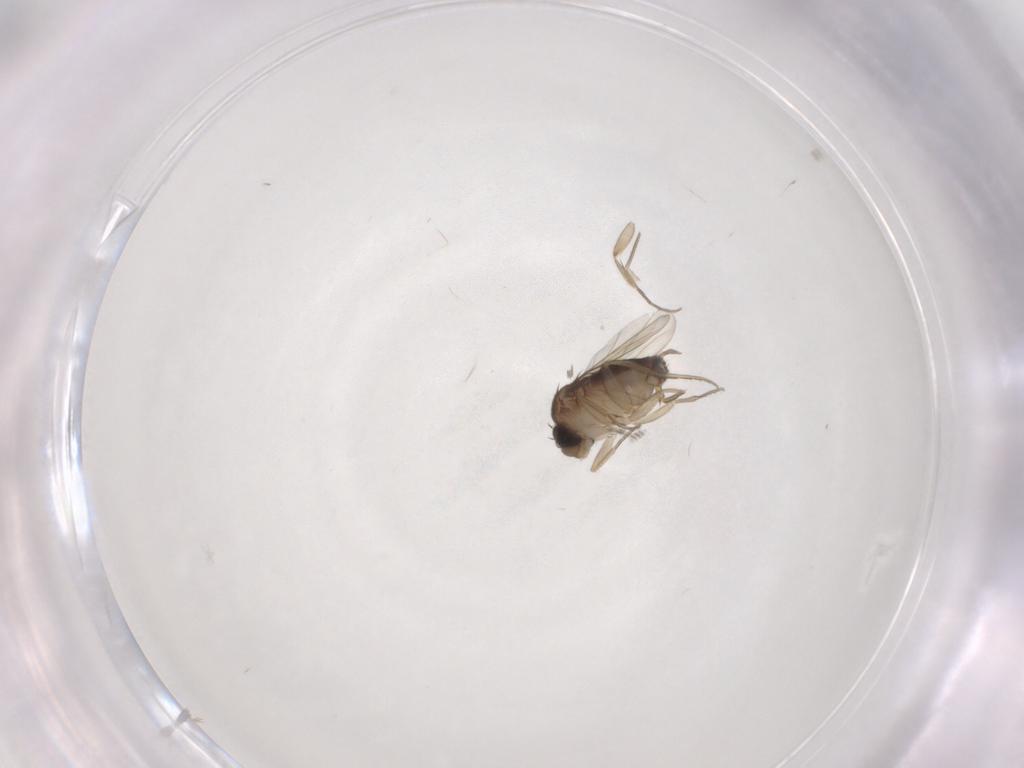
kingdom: Animalia
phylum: Arthropoda
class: Insecta
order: Diptera
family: Phoridae
